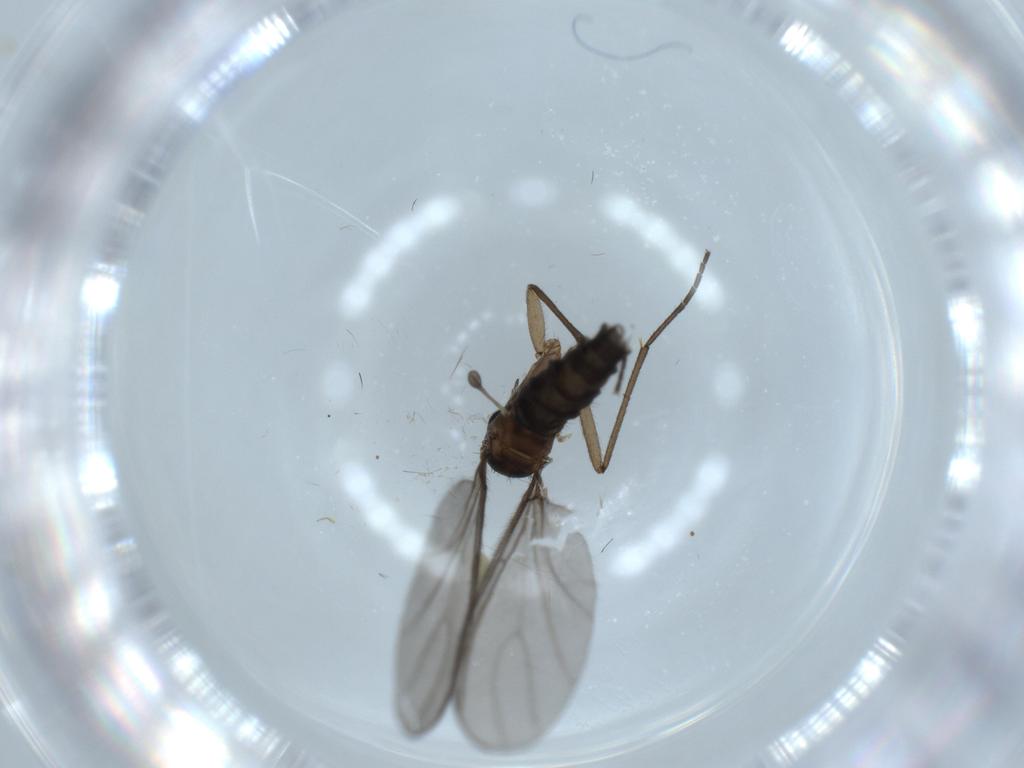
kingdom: Animalia
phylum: Arthropoda
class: Insecta
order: Diptera
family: Sciaridae
